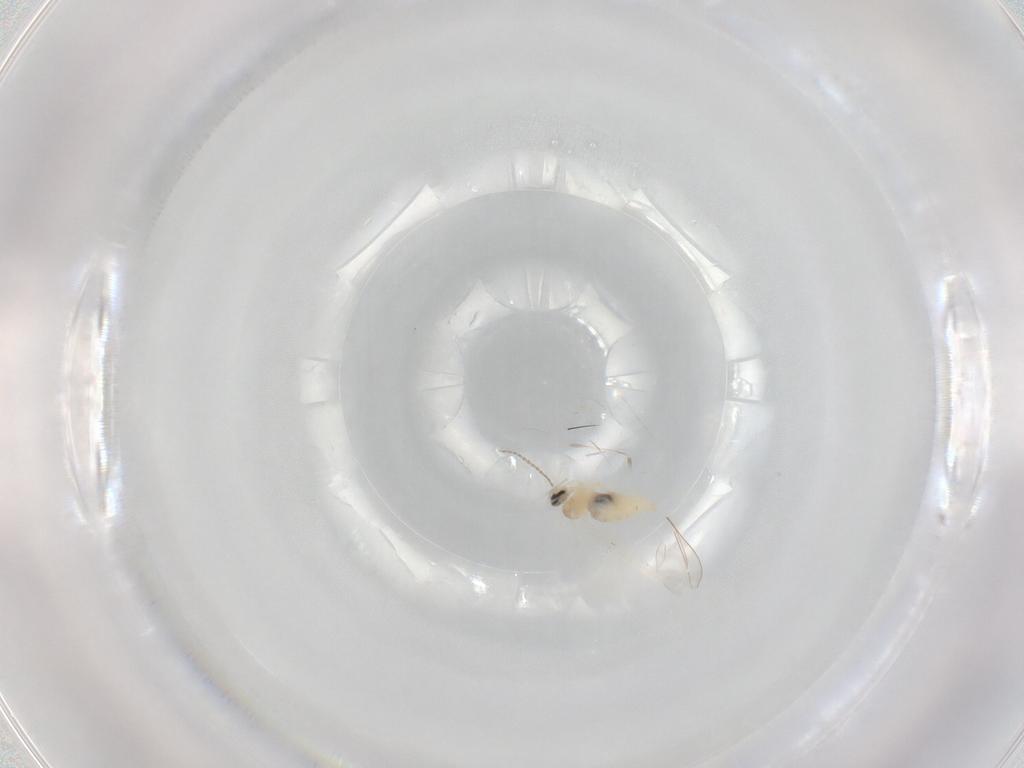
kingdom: Animalia
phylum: Arthropoda
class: Insecta
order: Diptera
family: Cecidomyiidae
